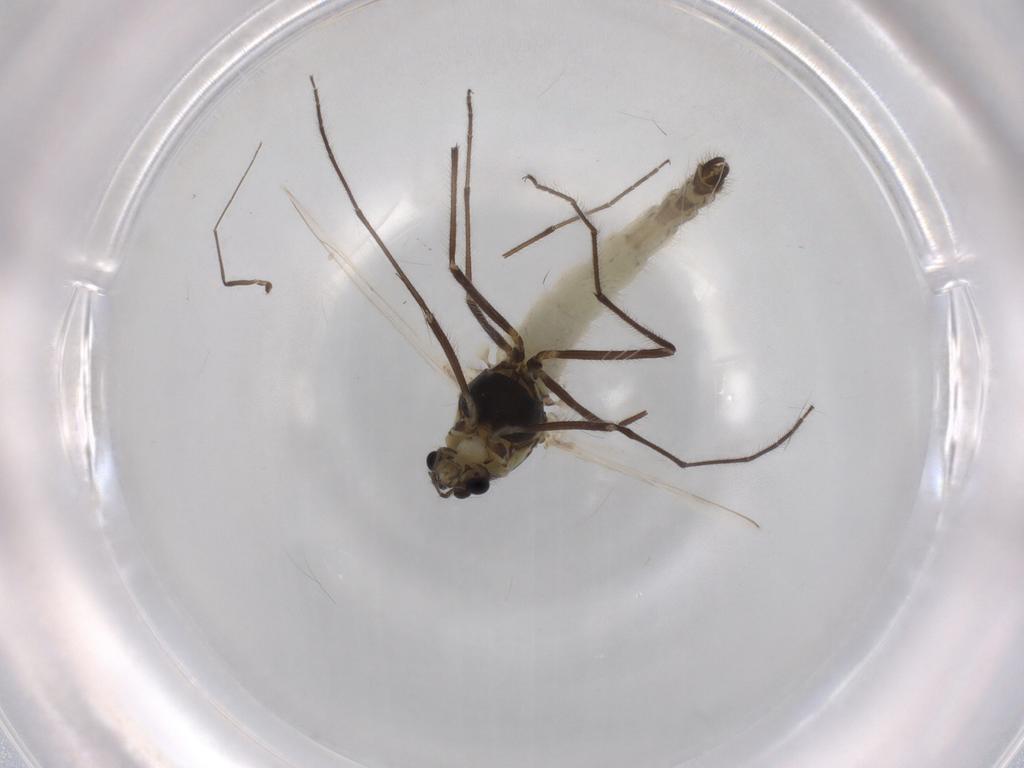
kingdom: Animalia
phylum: Arthropoda
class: Insecta
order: Diptera
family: Chironomidae
